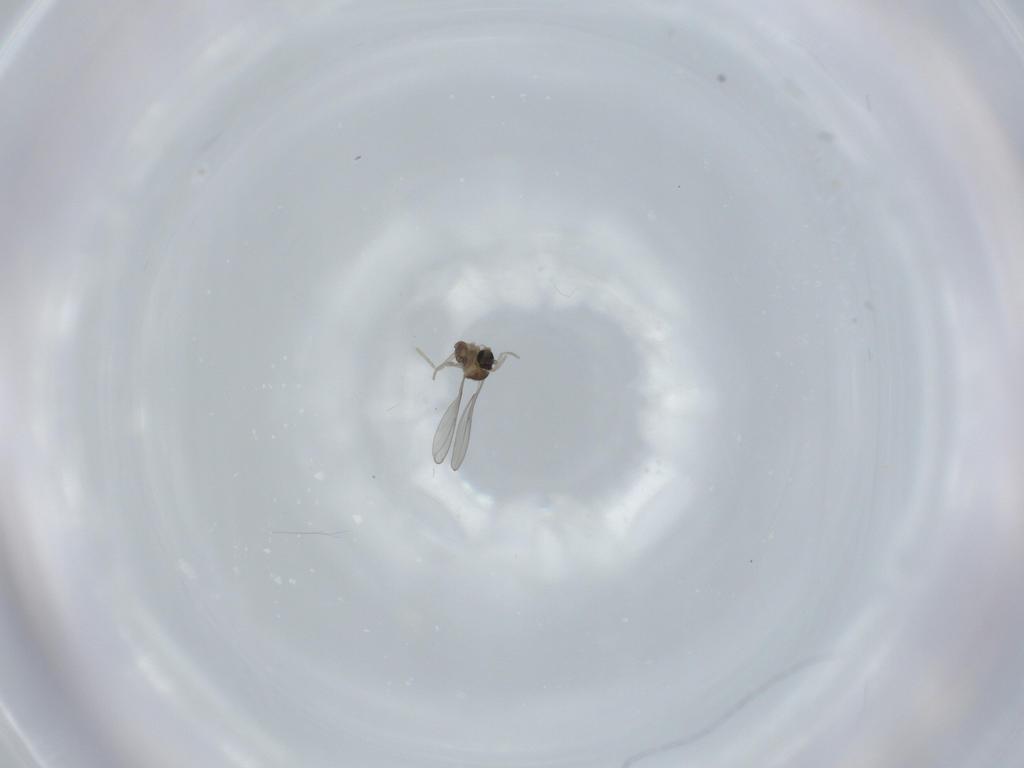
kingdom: Animalia
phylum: Arthropoda
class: Insecta
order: Diptera
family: Cecidomyiidae
